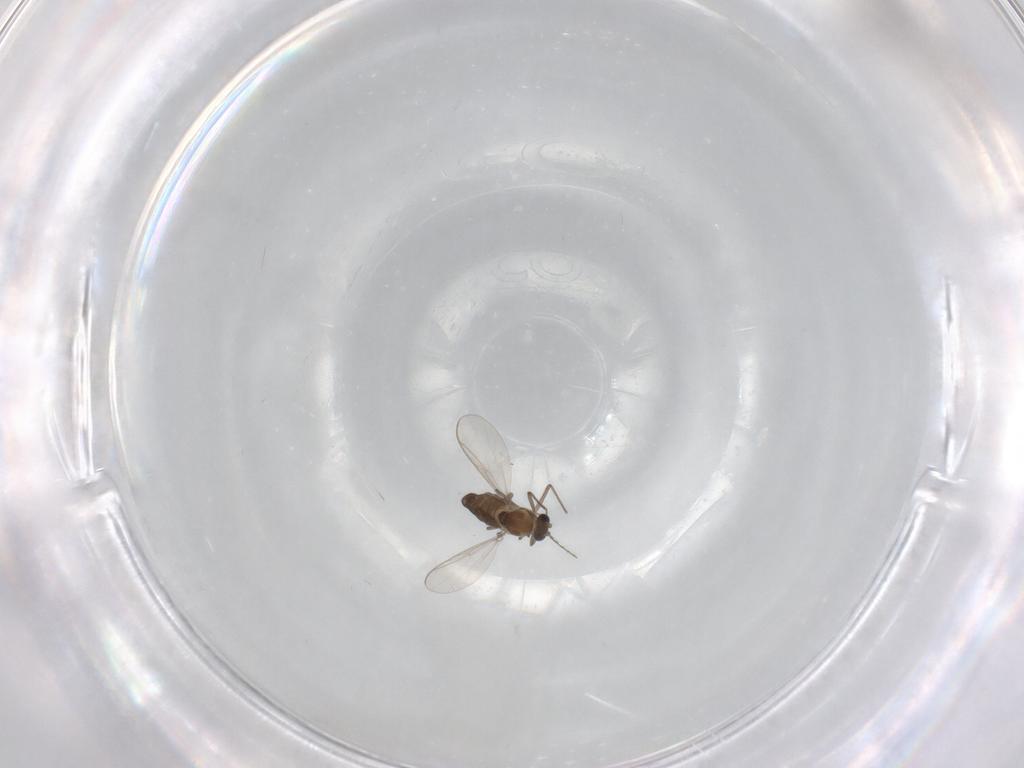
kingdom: Animalia
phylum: Arthropoda
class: Insecta
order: Diptera
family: Chironomidae
